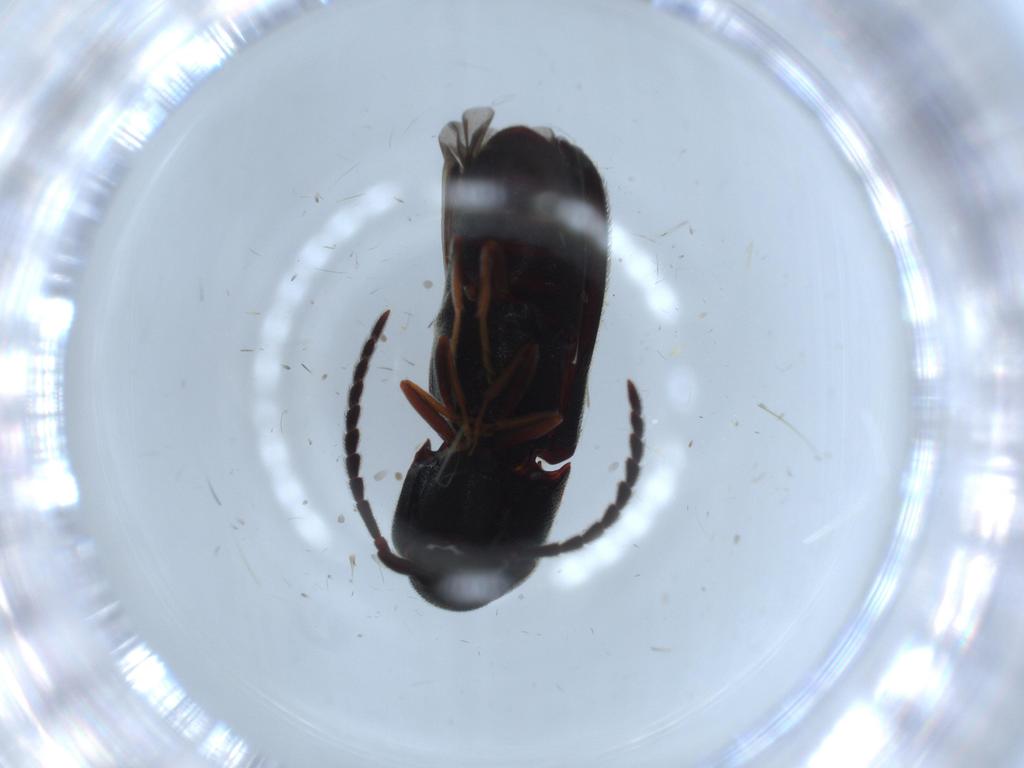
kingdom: Animalia
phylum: Arthropoda
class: Insecta
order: Coleoptera
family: Eucnemidae
